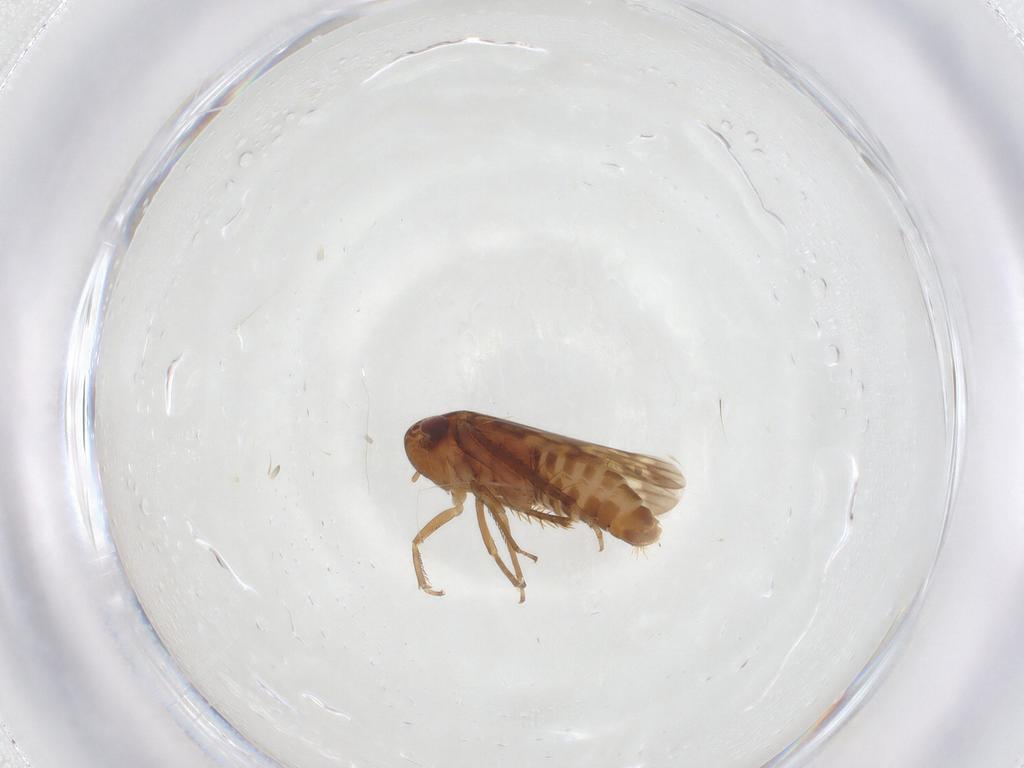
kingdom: Animalia
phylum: Arthropoda
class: Insecta
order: Hemiptera
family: Cicadellidae
